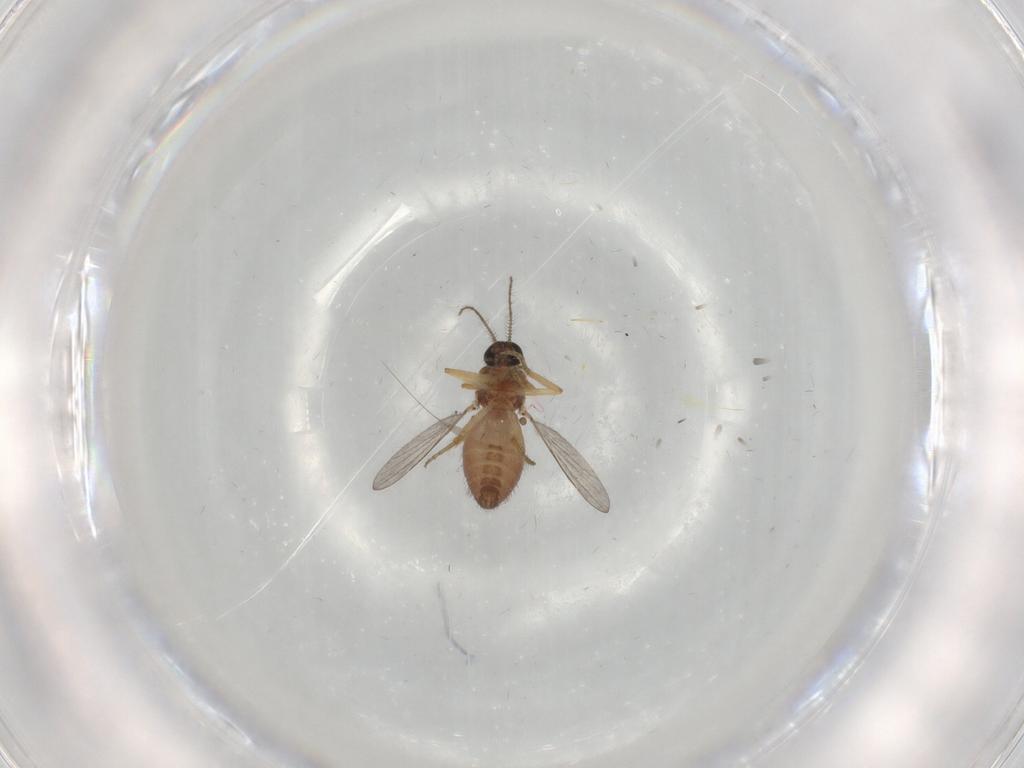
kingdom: Animalia
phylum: Arthropoda
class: Insecta
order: Diptera
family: Ceratopogonidae
